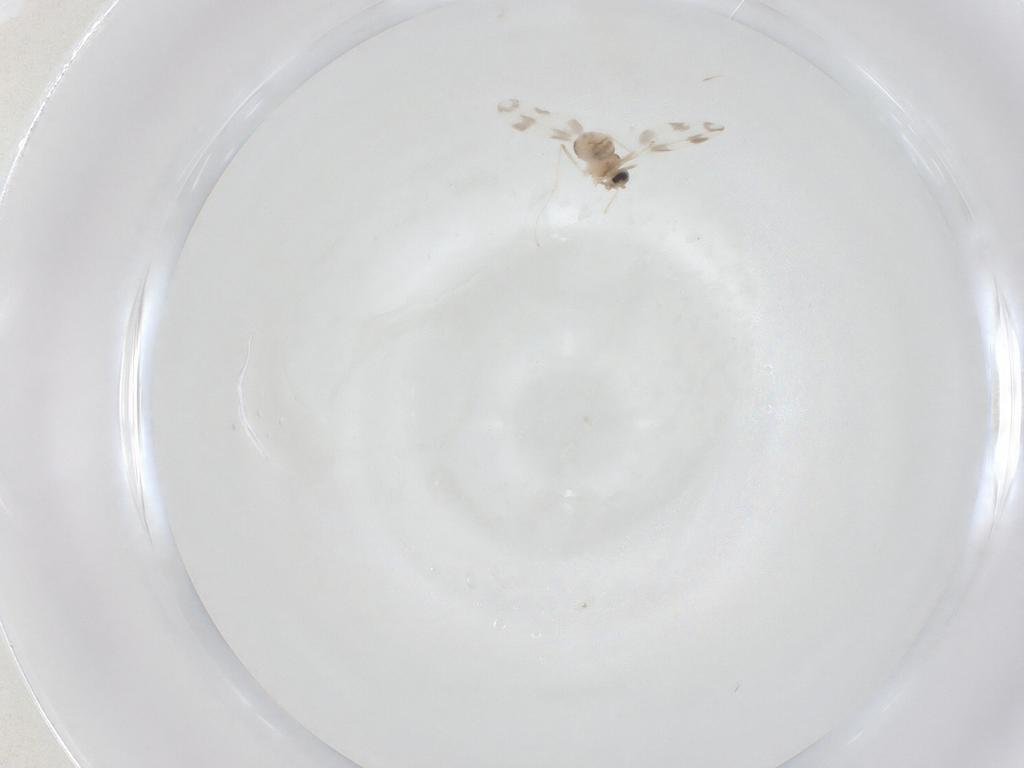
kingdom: Animalia
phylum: Arthropoda
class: Insecta
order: Diptera
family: Cecidomyiidae
